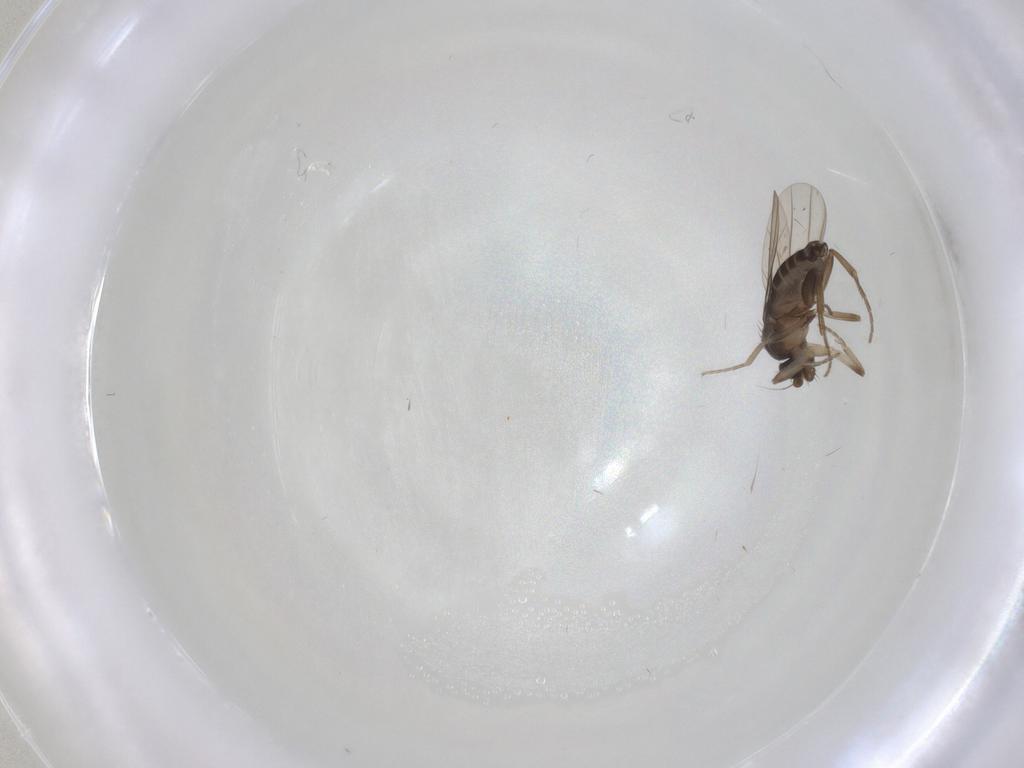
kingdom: Animalia
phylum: Arthropoda
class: Insecta
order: Diptera
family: Phoridae
